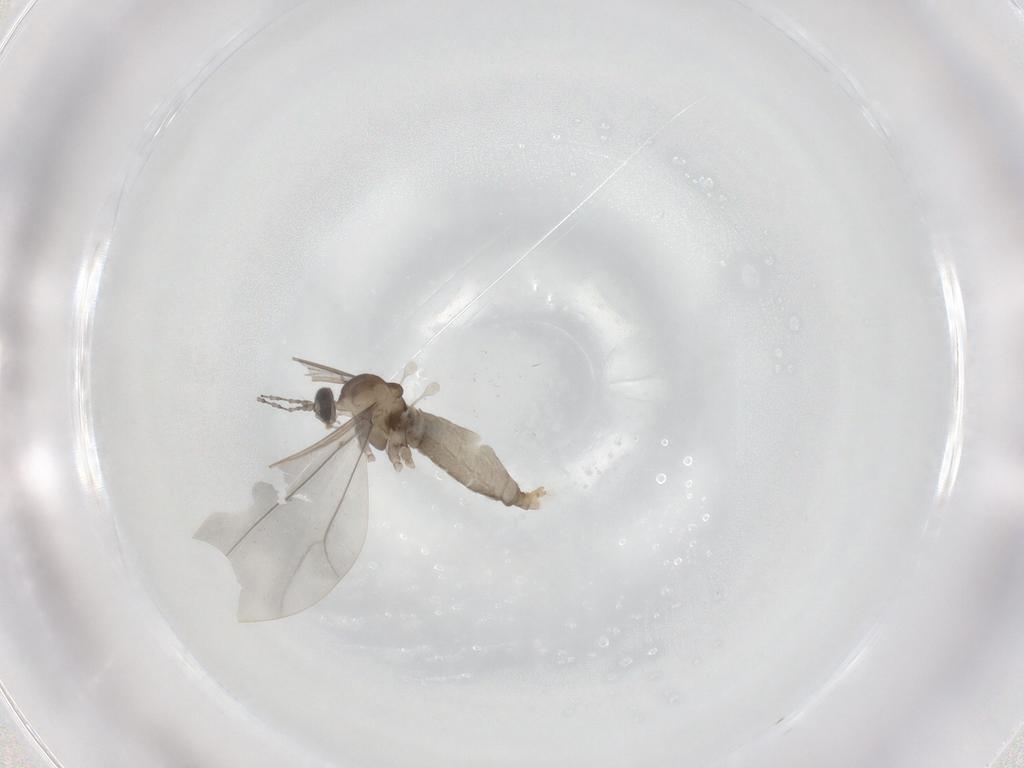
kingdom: Animalia
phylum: Arthropoda
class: Insecta
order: Diptera
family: Cecidomyiidae
